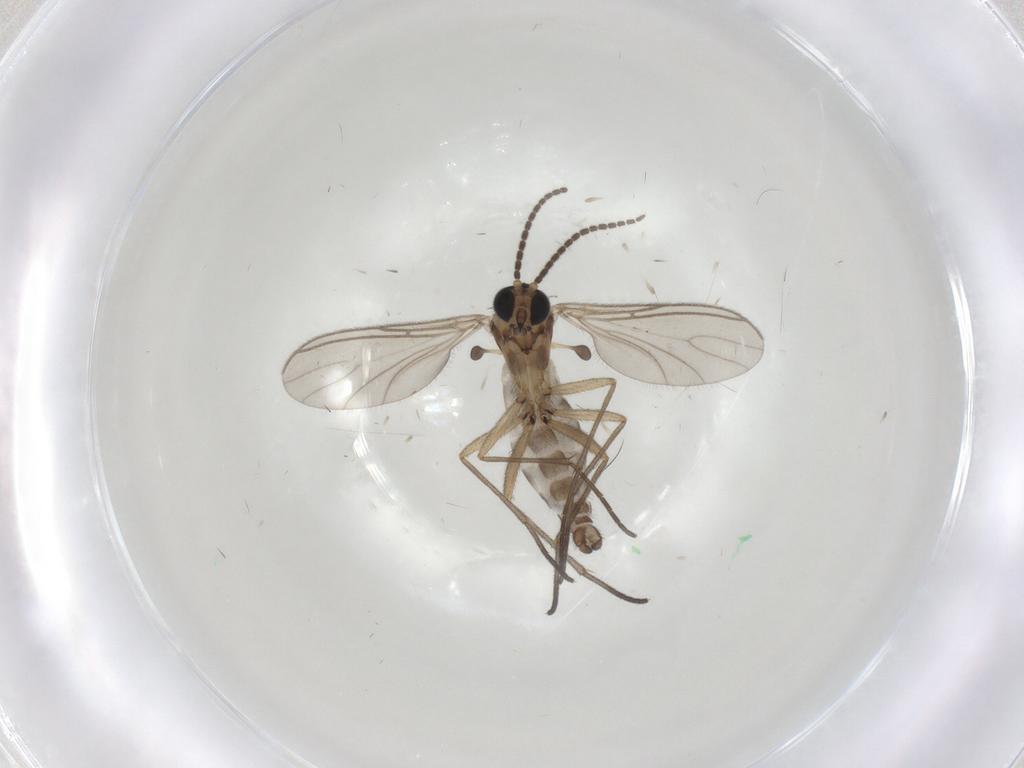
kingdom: Animalia
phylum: Arthropoda
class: Insecta
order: Diptera
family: Sciaridae
